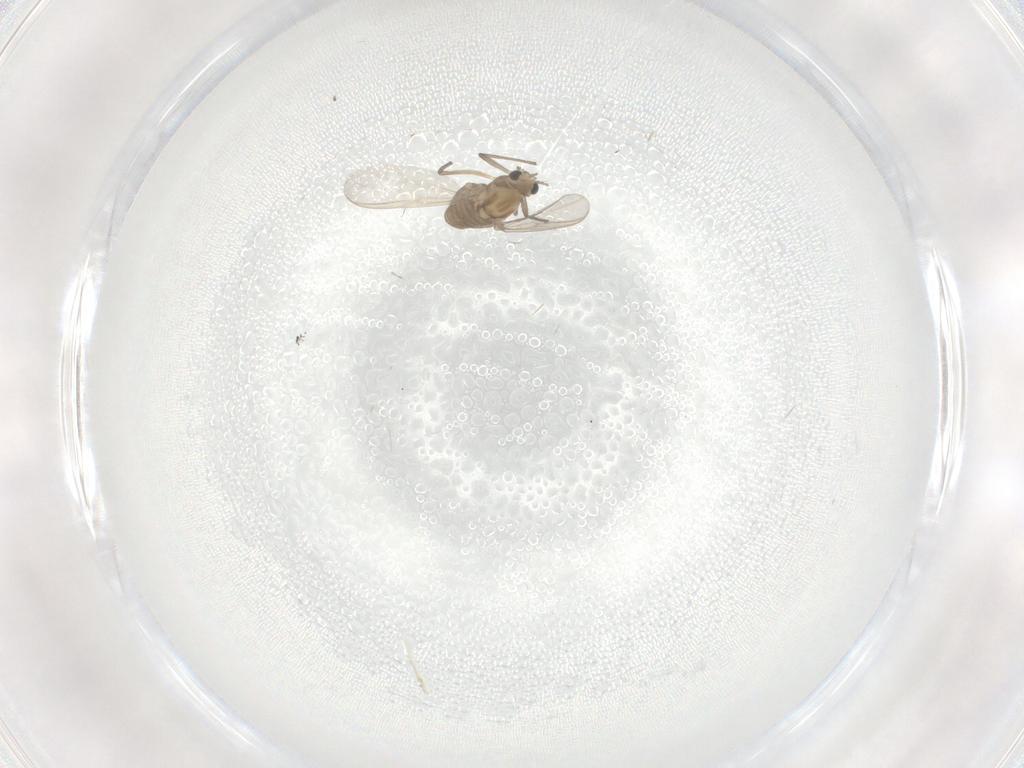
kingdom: Animalia
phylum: Arthropoda
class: Insecta
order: Diptera
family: Chironomidae
